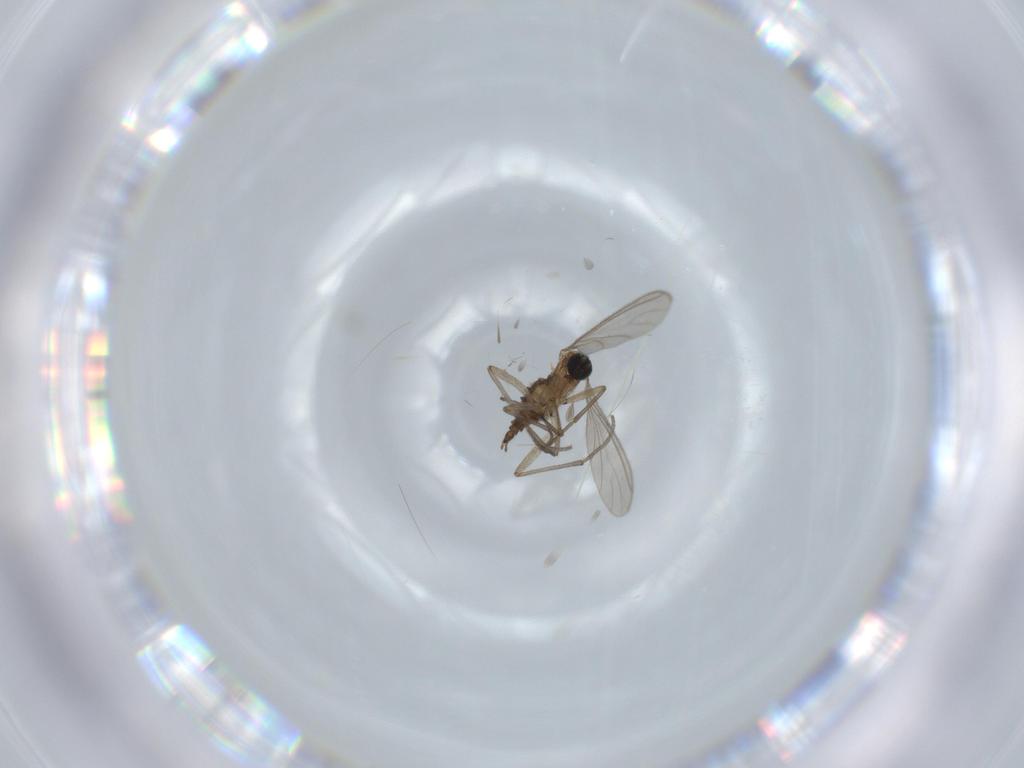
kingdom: Animalia
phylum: Arthropoda
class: Insecta
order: Diptera
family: Sciaridae
